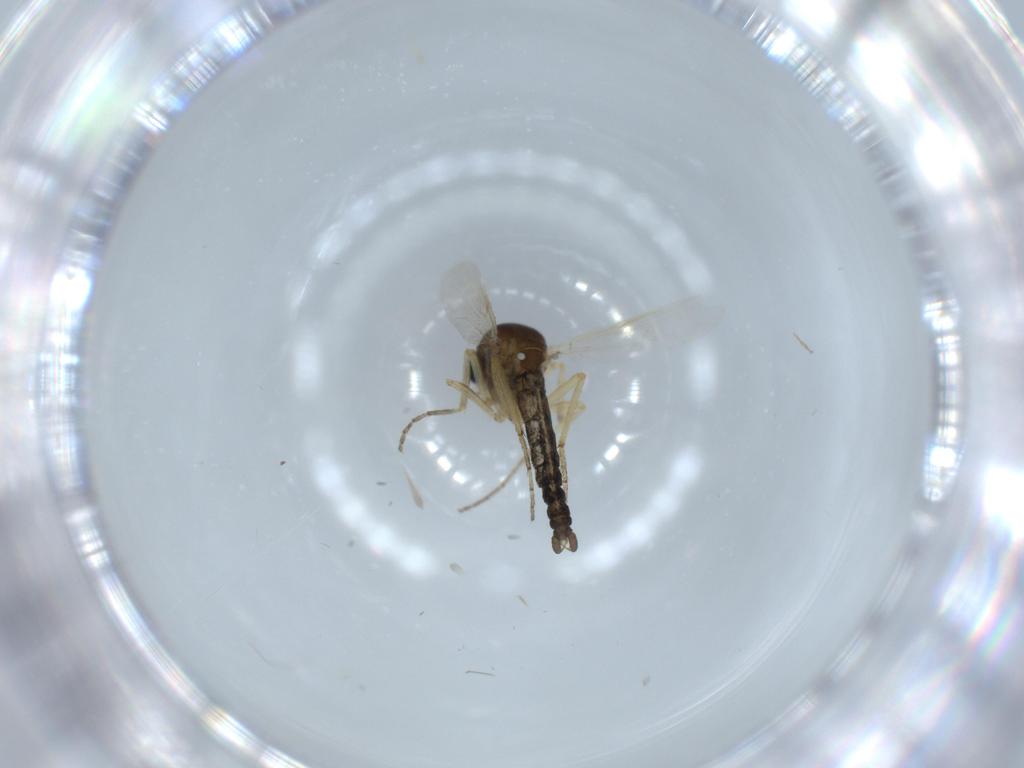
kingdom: Animalia
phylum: Arthropoda
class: Insecta
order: Diptera
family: Ceratopogonidae
